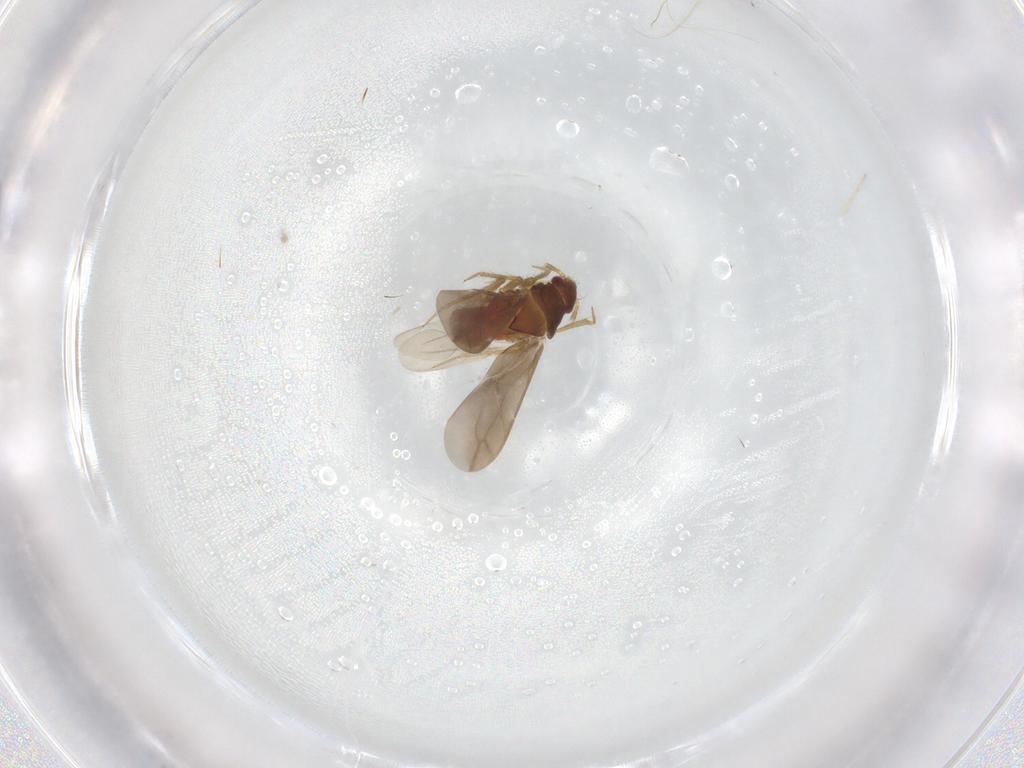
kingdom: Animalia
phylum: Arthropoda
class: Insecta
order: Hemiptera
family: Ceratocombidae
